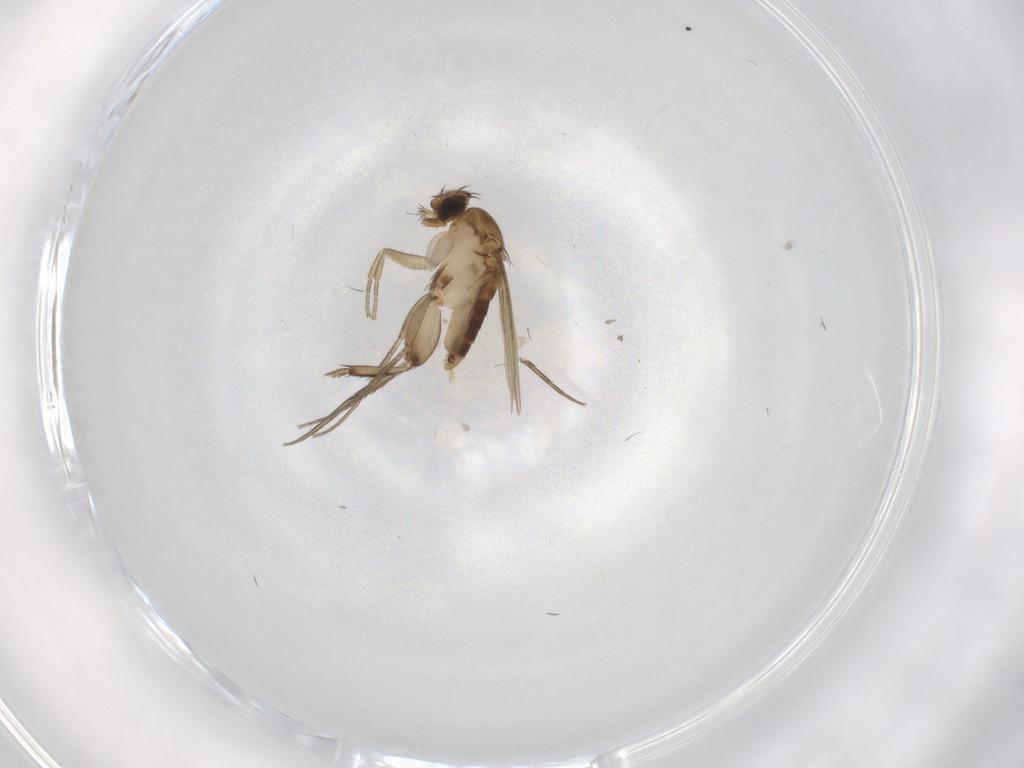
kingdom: Animalia
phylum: Arthropoda
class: Insecta
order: Diptera
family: Phoridae
